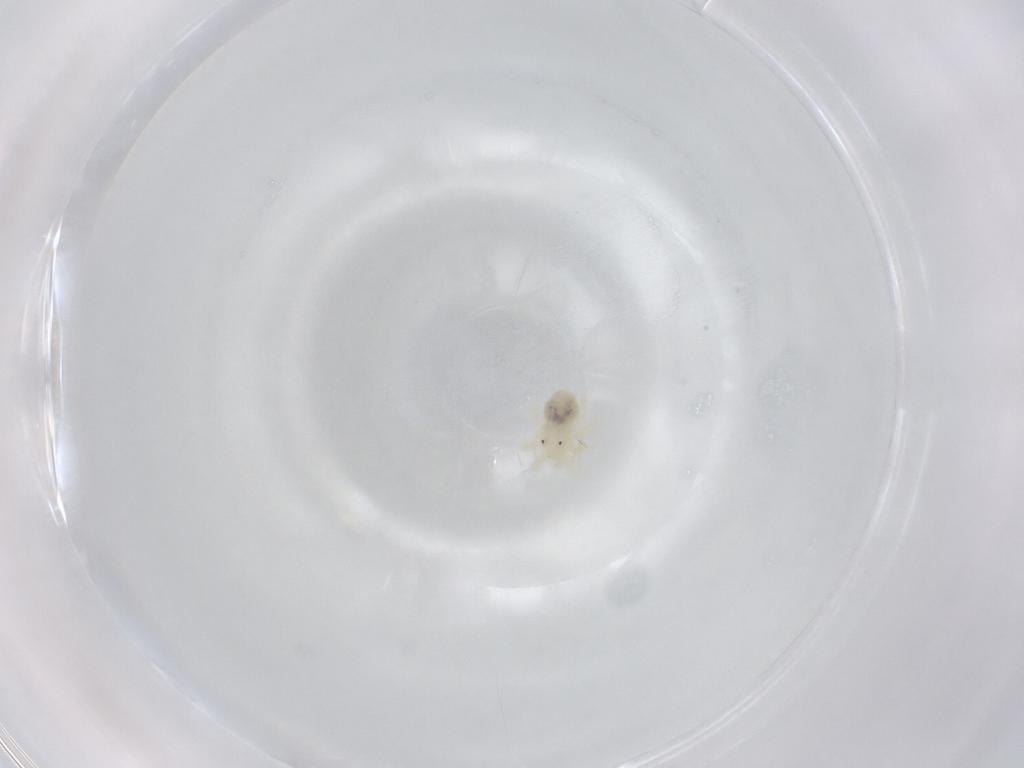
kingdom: Animalia
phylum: Arthropoda
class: Arachnida
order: Trombidiformes
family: Anystidae
